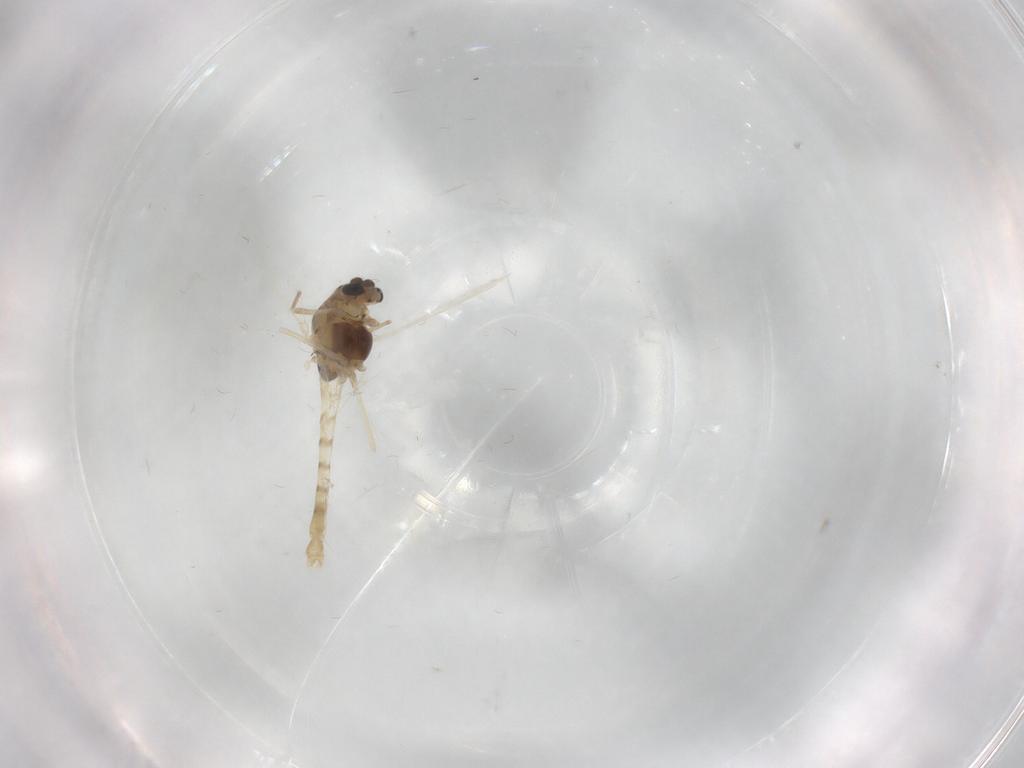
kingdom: Animalia
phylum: Arthropoda
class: Insecta
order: Diptera
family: Chironomidae
